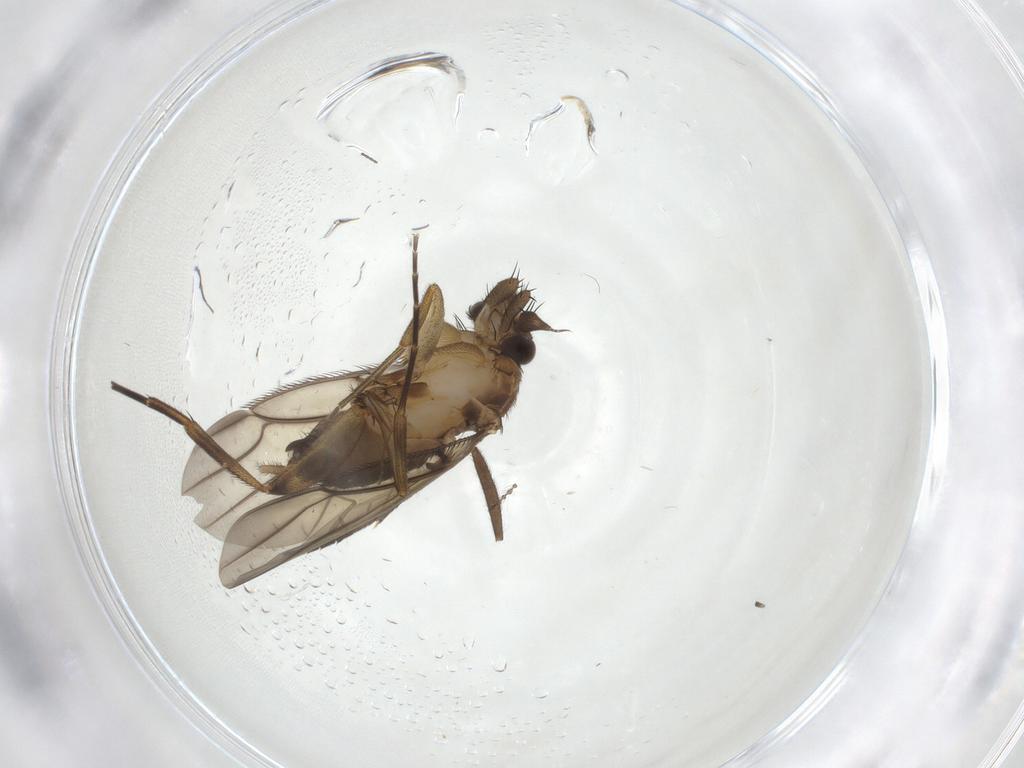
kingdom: Animalia
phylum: Arthropoda
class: Insecta
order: Diptera
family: Phoridae
